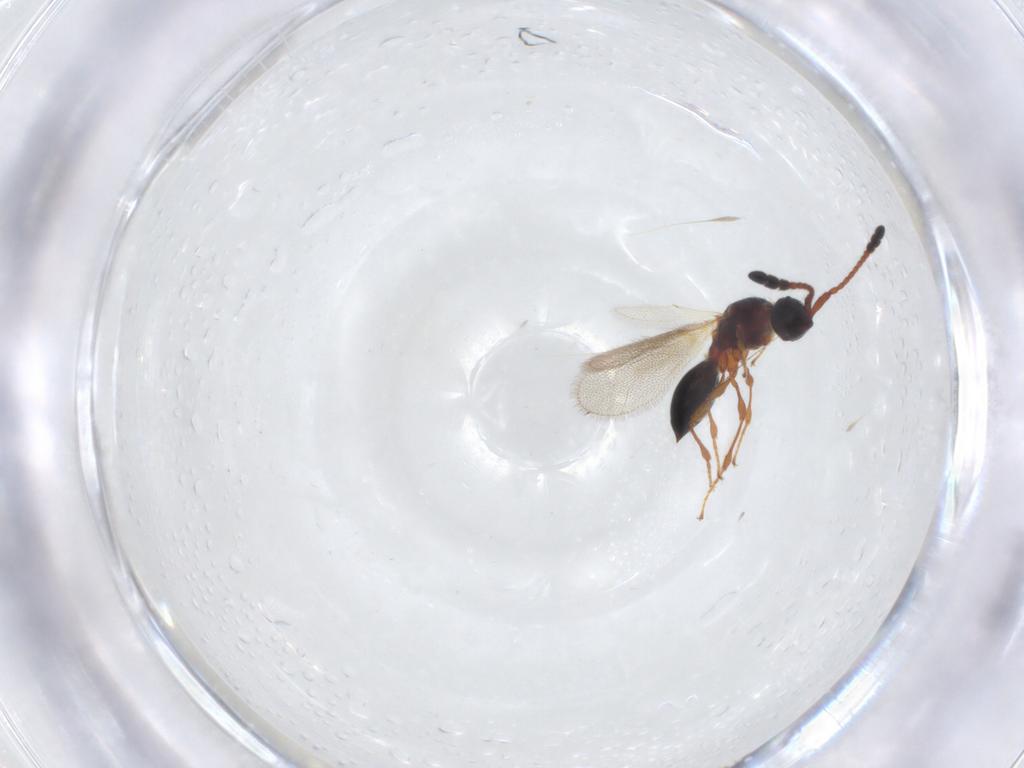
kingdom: Animalia
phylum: Arthropoda
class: Insecta
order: Hymenoptera
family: Diapriidae
